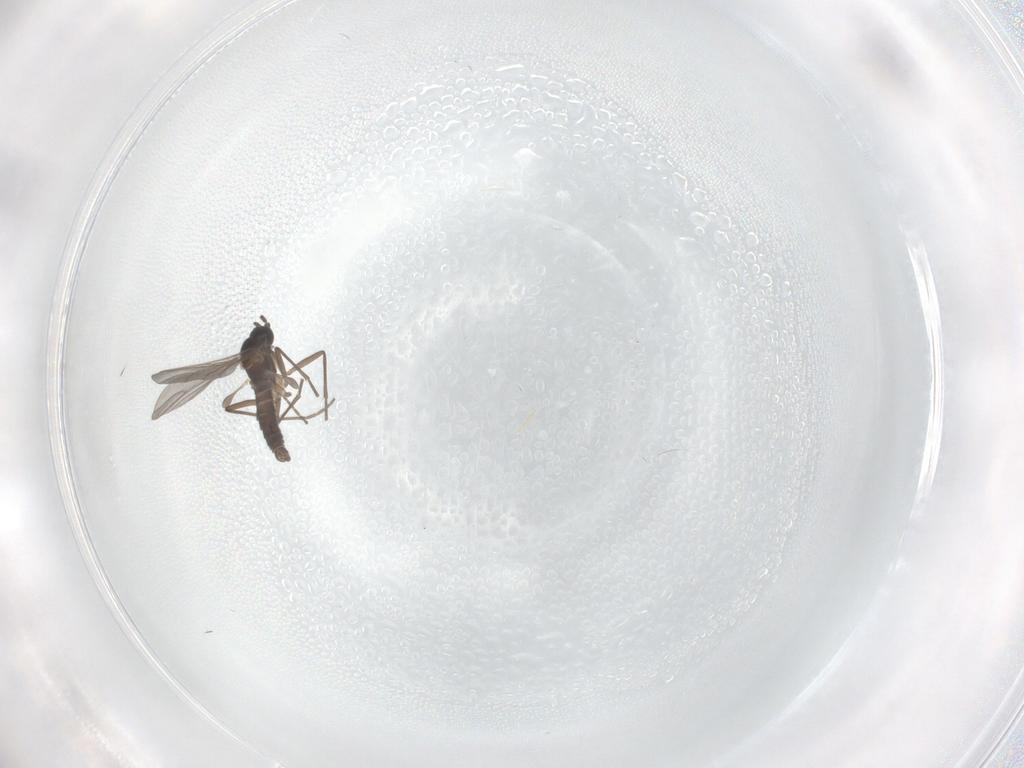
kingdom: Animalia
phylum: Arthropoda
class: Insecta
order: Diptera
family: Sciaridae
